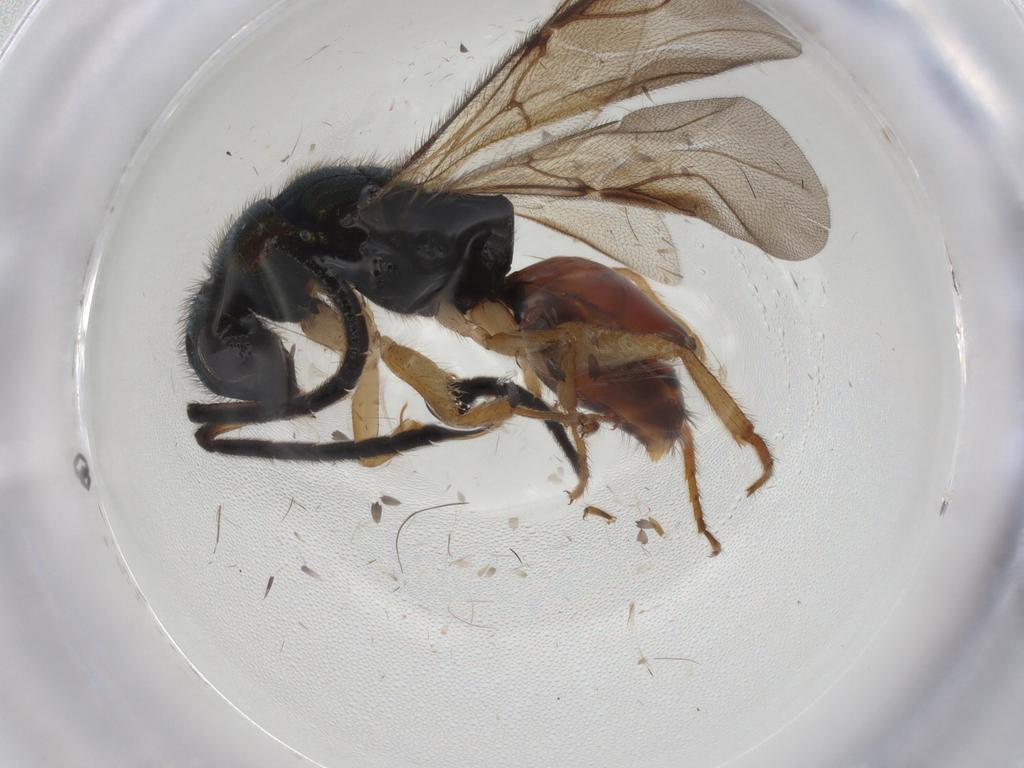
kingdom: Animalia
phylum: Arthropoda
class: Insecta
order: Hymenoptera
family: Chrysididae
